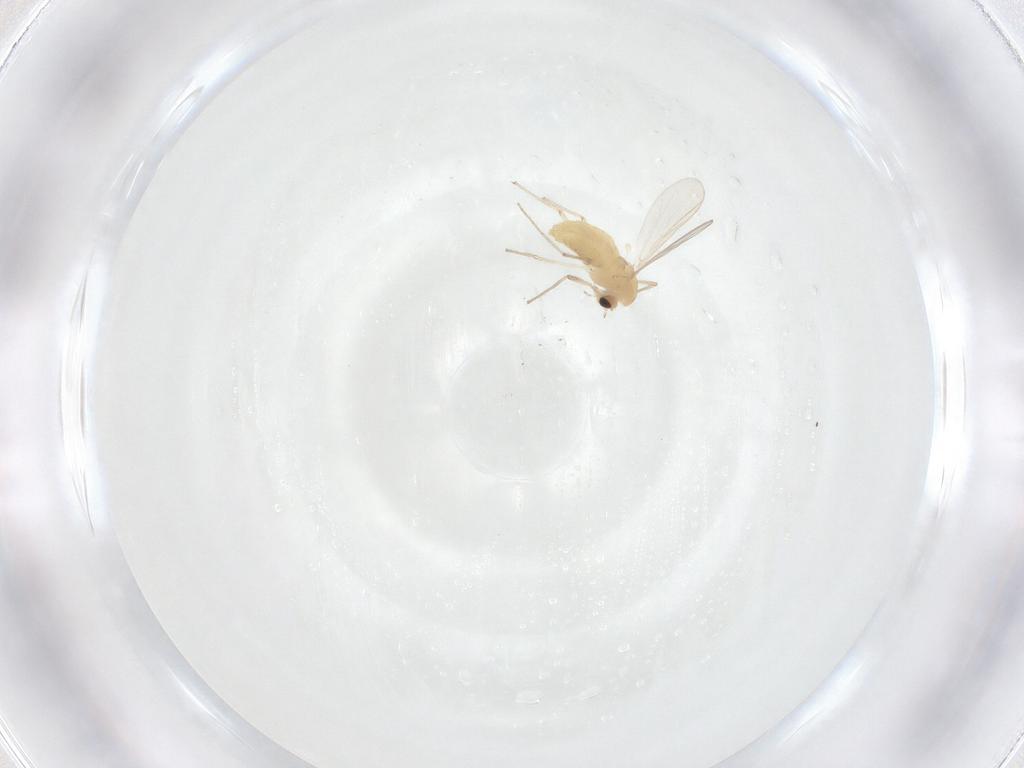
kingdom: Animalia
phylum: Arthropoda
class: Insecta
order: Diptera
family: Chironomidae
